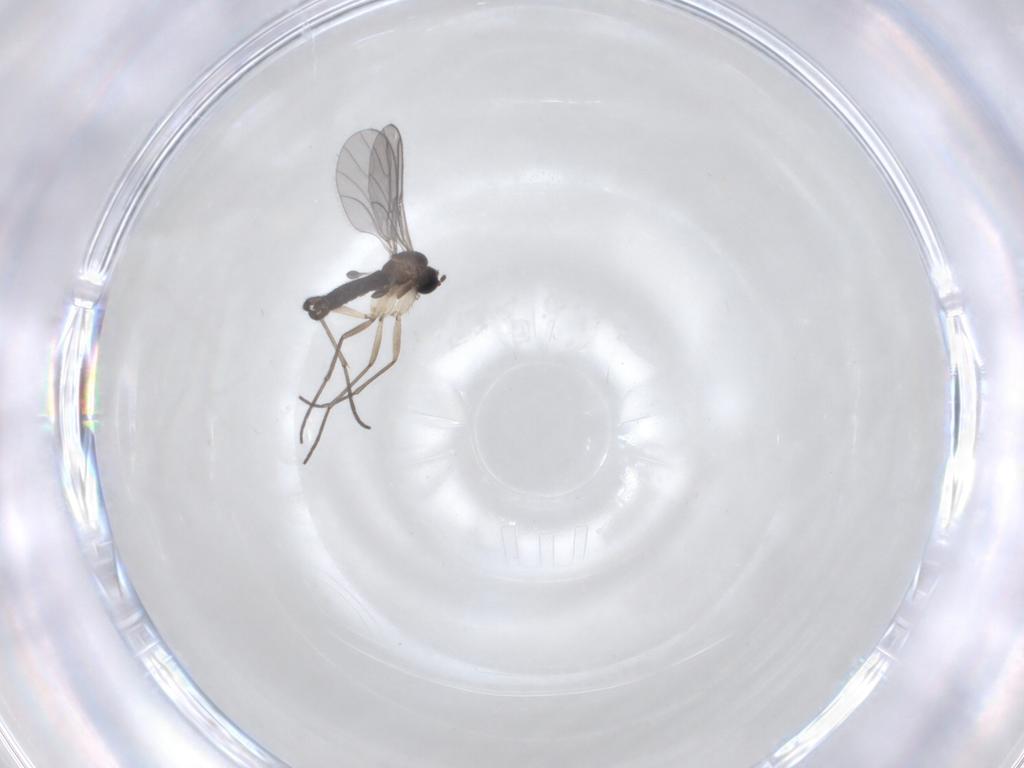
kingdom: Animalia
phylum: Arthropoda
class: Insecta
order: Diptera
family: Sciaridae
